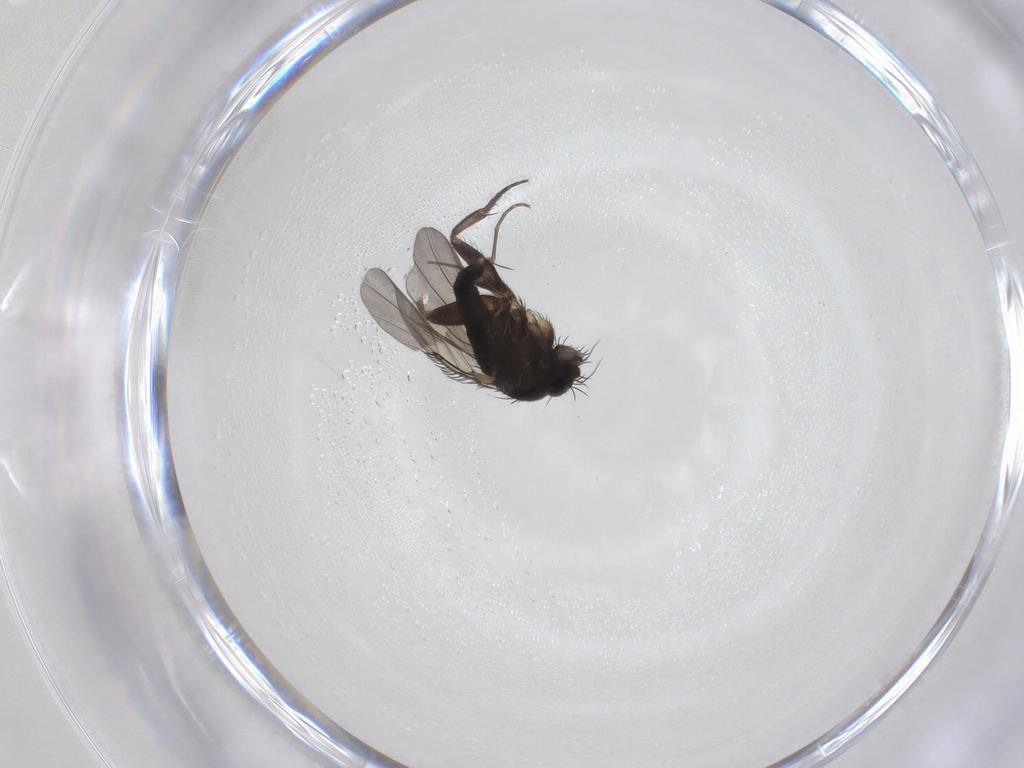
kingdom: Animalia
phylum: Arthropoda
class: Insecta
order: Diptera
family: Phoridae
